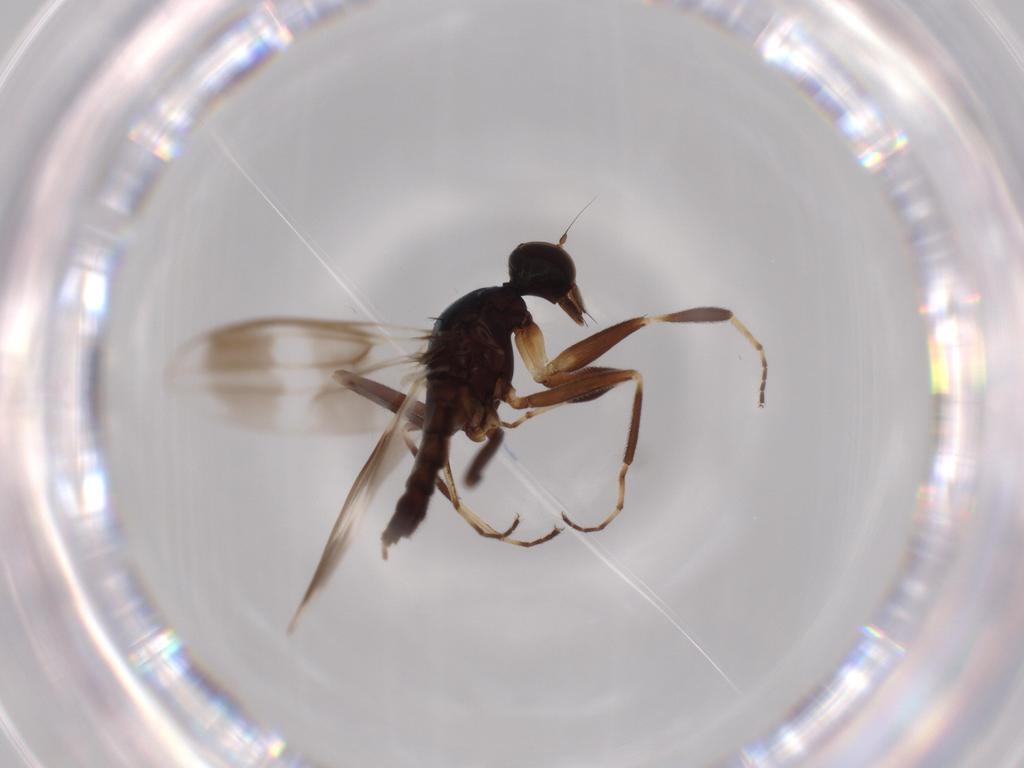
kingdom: Animalia
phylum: Arthropoda
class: Insecta
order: Diptera
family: Hybotidae
